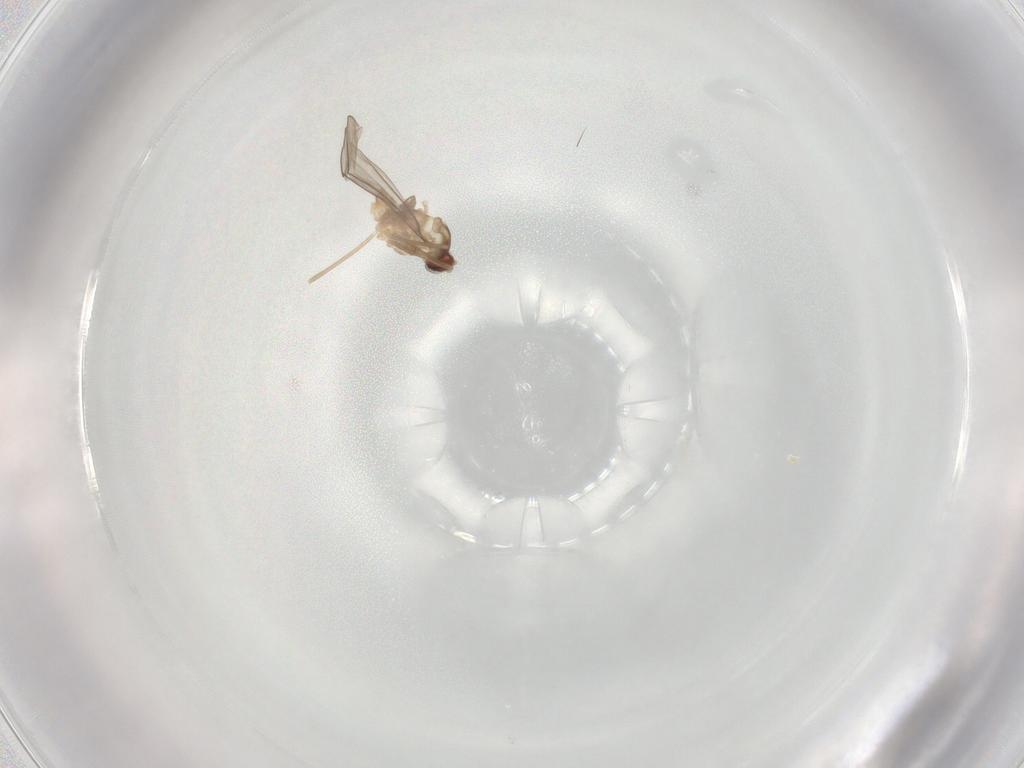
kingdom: Animalia
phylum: Arthropoda
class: Insecta
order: Diptera
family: Cecidomyiidae
